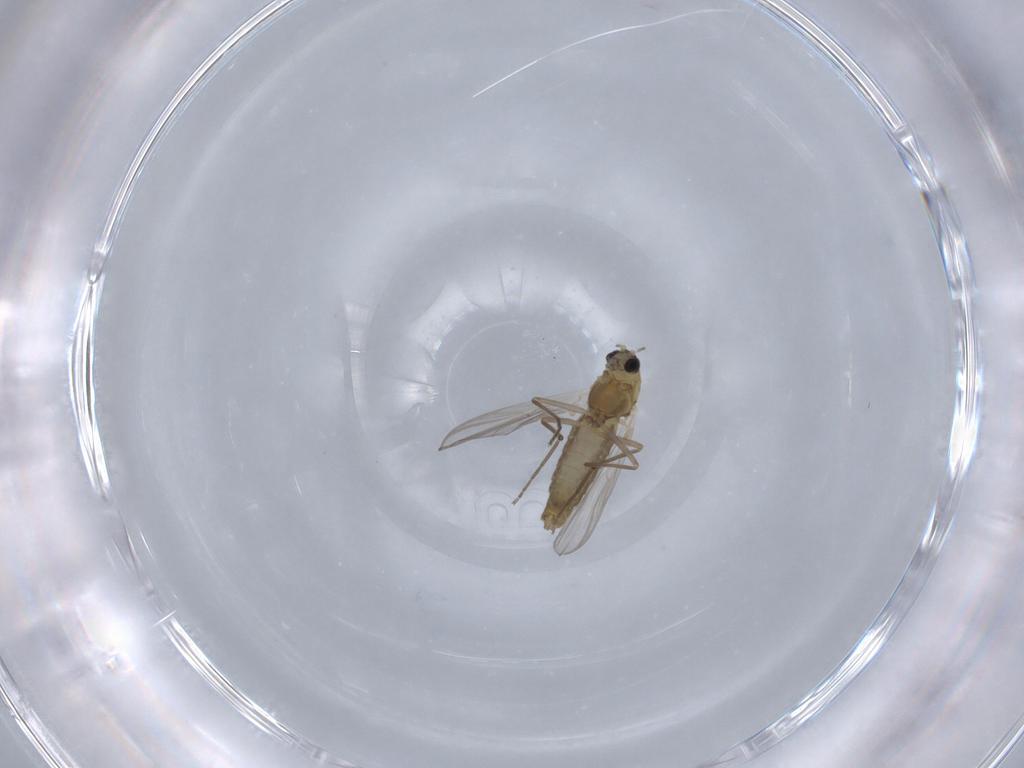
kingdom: Animalia
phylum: Arthropoda
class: Insecta
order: Diptera
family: Chironomidae
